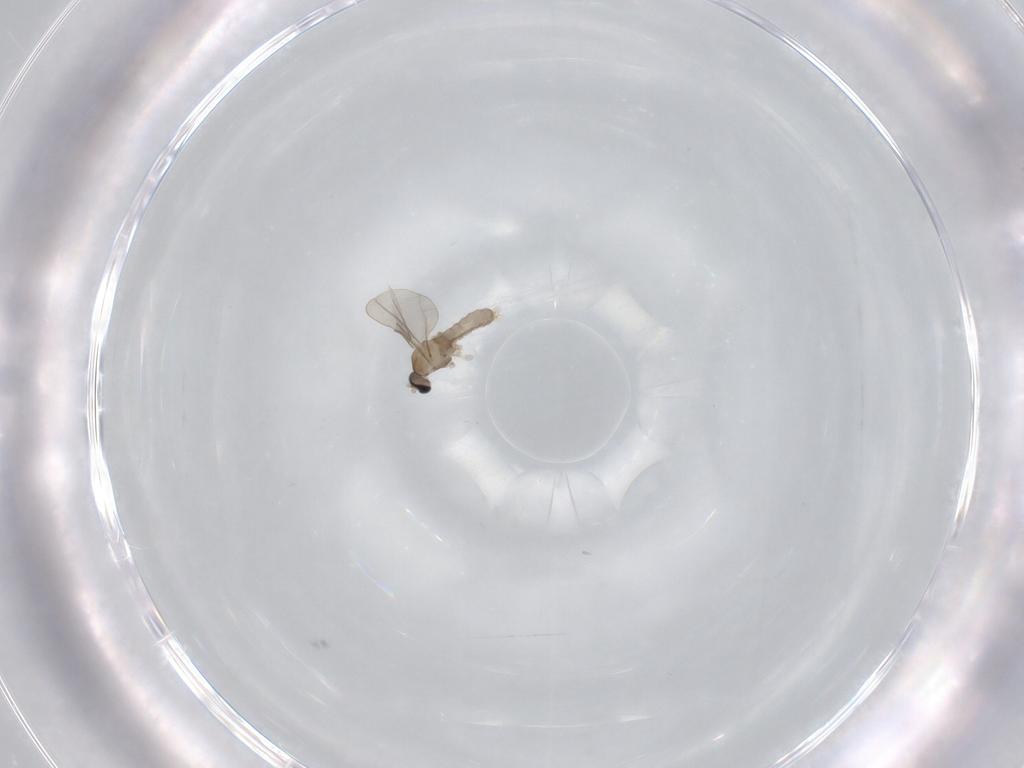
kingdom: Animalia
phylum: Arthropoda
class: Insecta
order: Diptera
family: Cecidomyiidae
